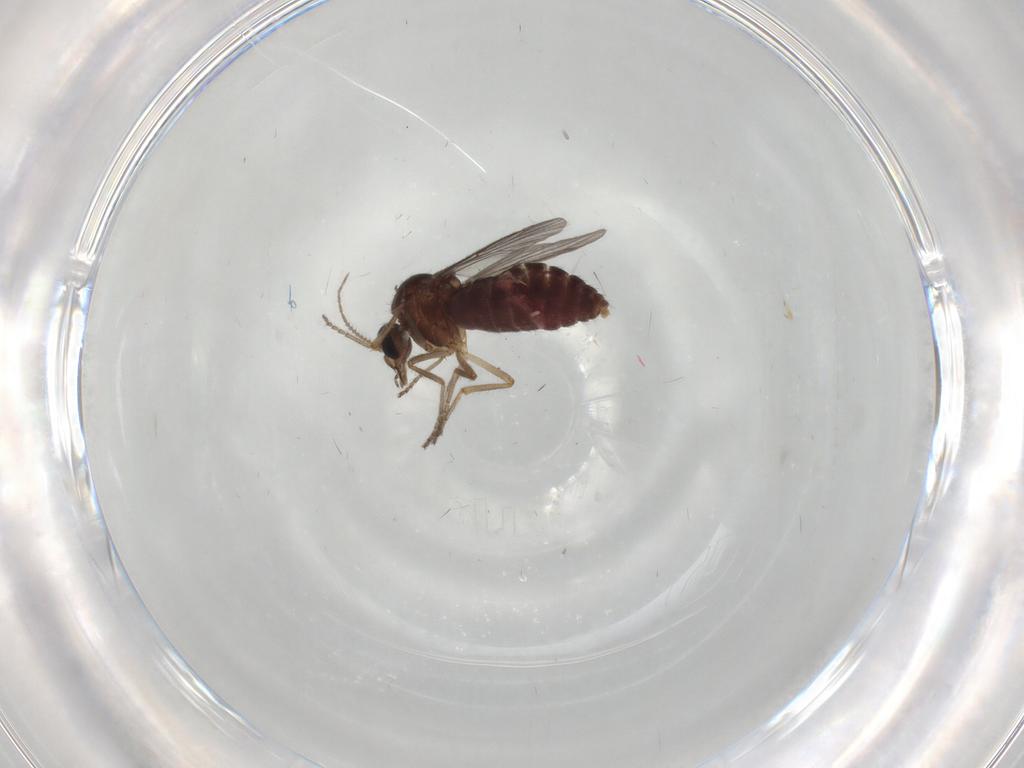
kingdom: Animalia
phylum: Arthropoda
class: Insecta
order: Diptera
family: Ceratopogonidae
